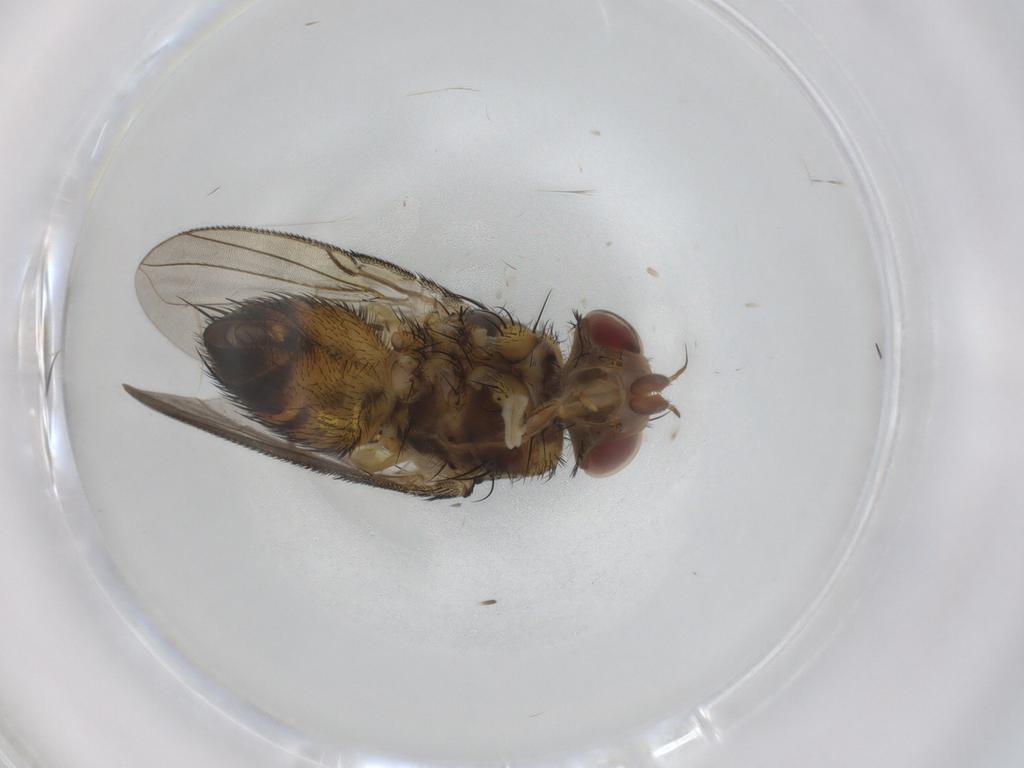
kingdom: Animalia
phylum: Arthropoda
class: Insecta
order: Diptera
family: Tachinidae
